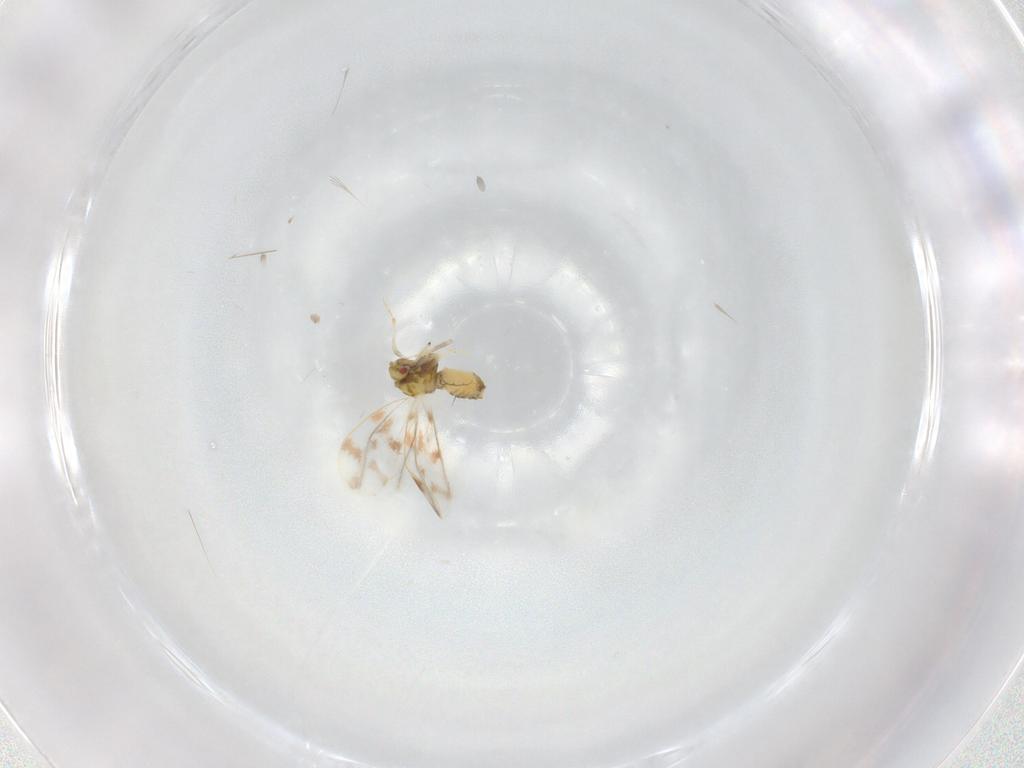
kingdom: Animalia
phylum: Arthropoda
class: Insecta
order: Hemiptera
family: Aleyrodidae
